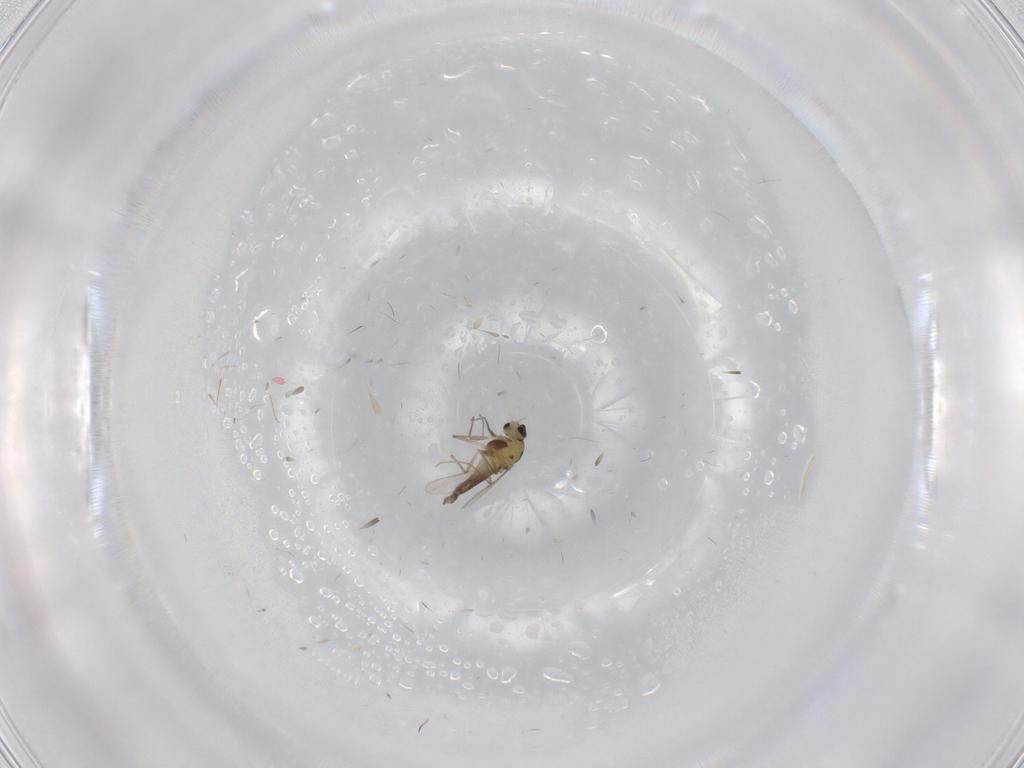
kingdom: Animalia
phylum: Arthropoda
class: Insecta
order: Diptera
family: Chironomidae
